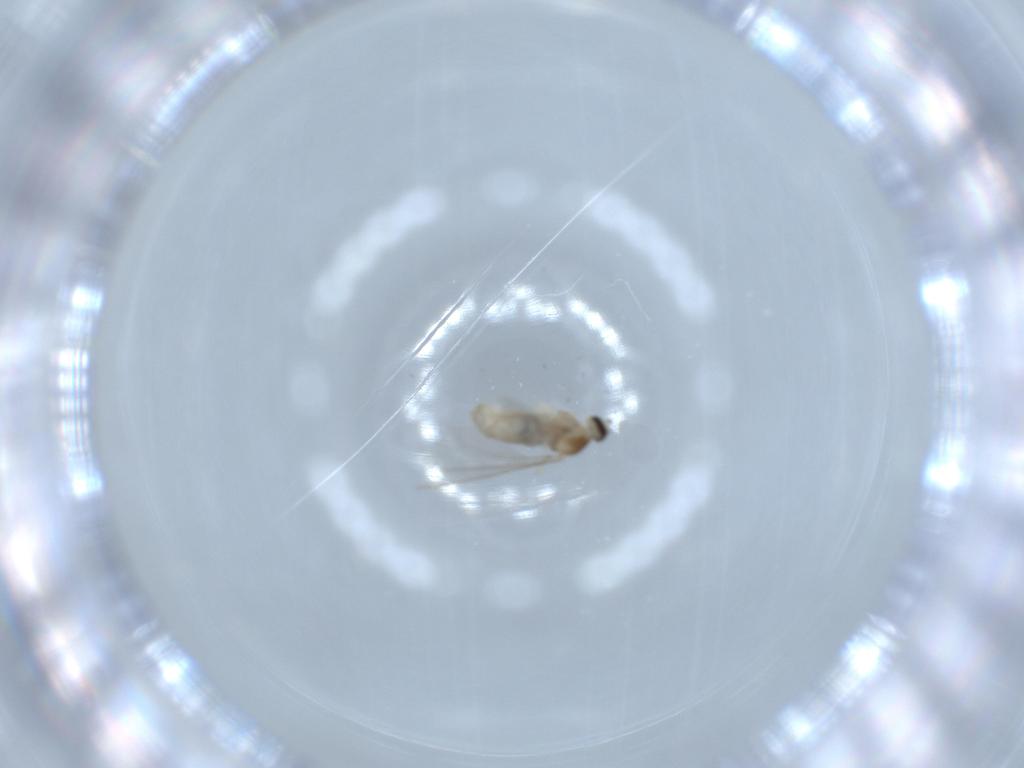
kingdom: Animalia
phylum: Arthropoda
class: Insecta
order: Diptera
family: Cecidomyiidae
